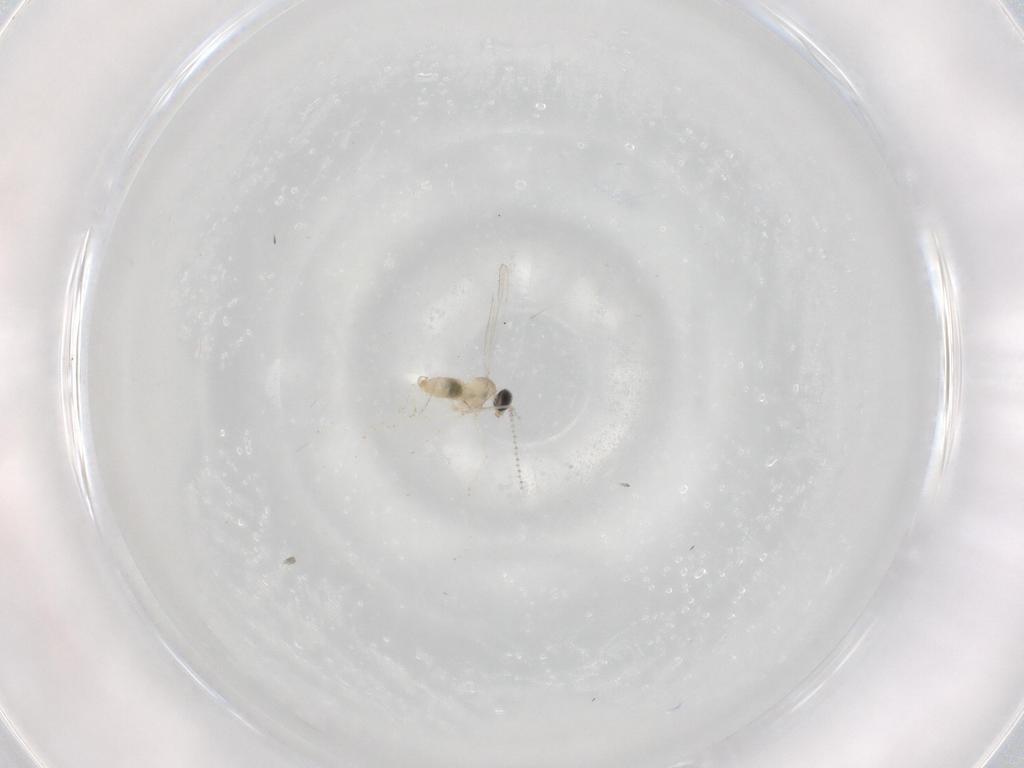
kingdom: Animalia
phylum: Arthropoda
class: Insecta
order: Diptera
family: Cecidomyiidae
